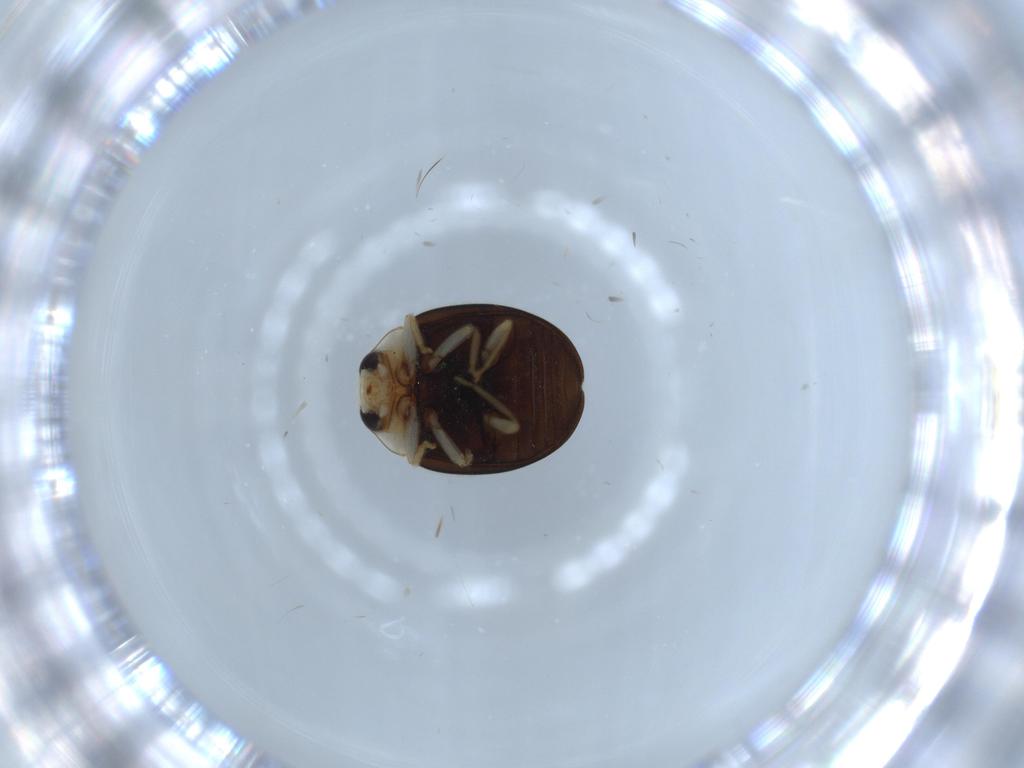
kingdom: Animalia
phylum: Arthropoda
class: Insecta
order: Coleoptera
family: Coccinellidae
